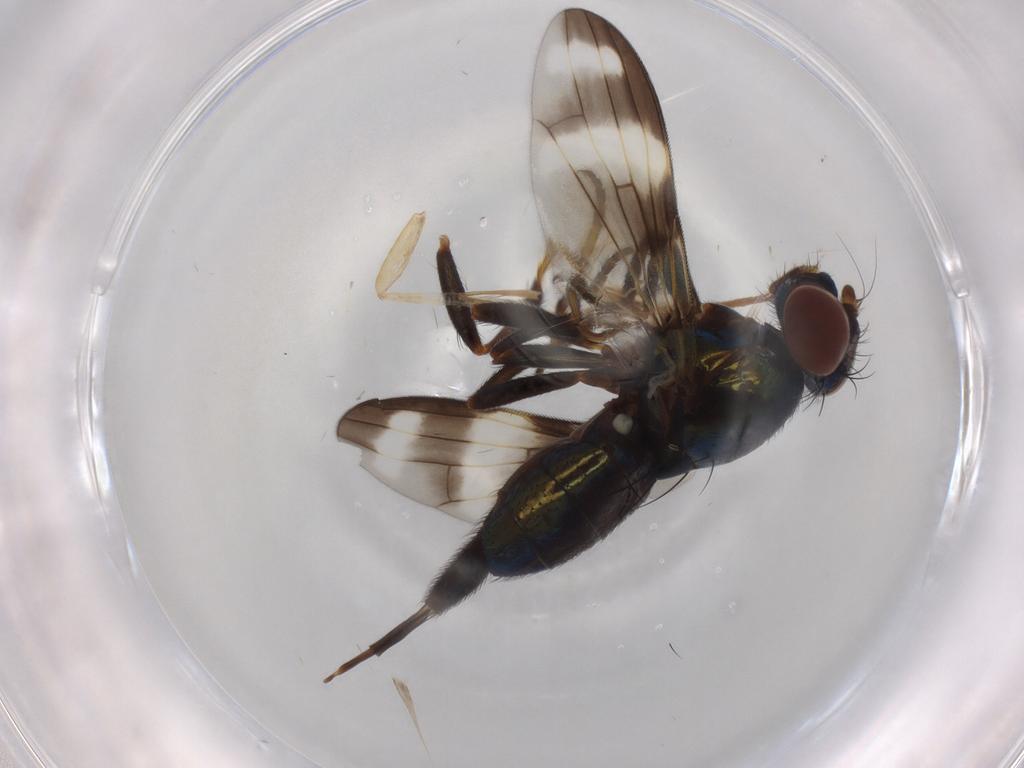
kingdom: Animalia
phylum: Arthropoda
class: Insecta
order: Diptera
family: Ulidiidae
